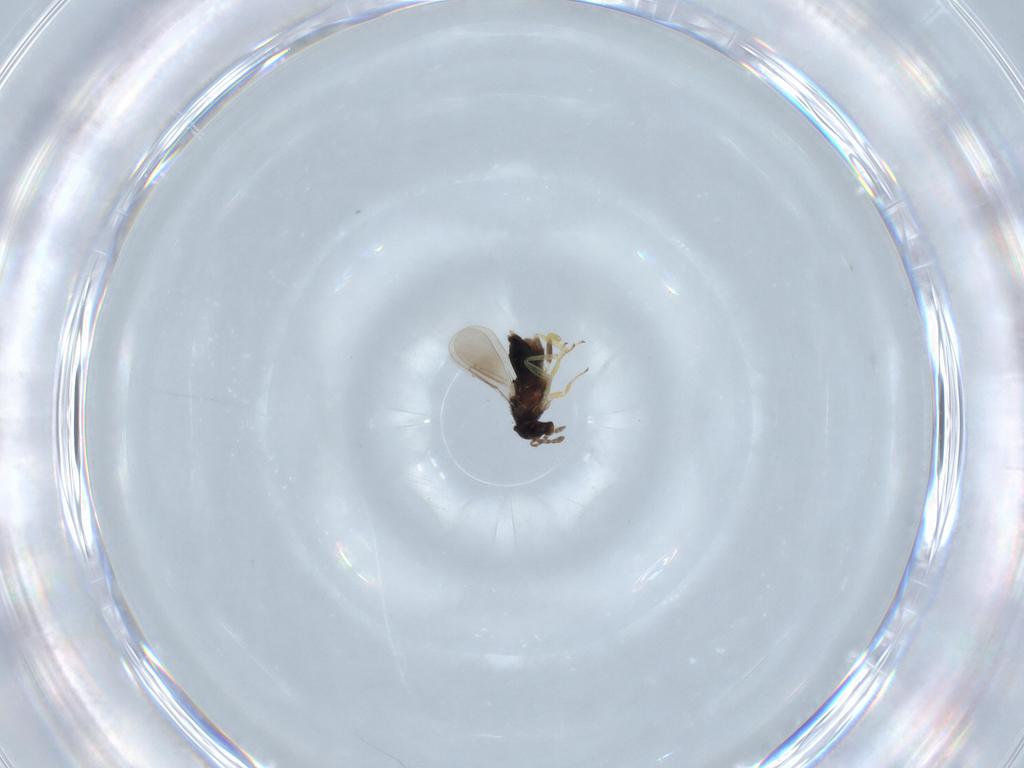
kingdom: Animalia
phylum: Arthropoda
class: Insecta
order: Hymenoptera
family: Aphelinidae
